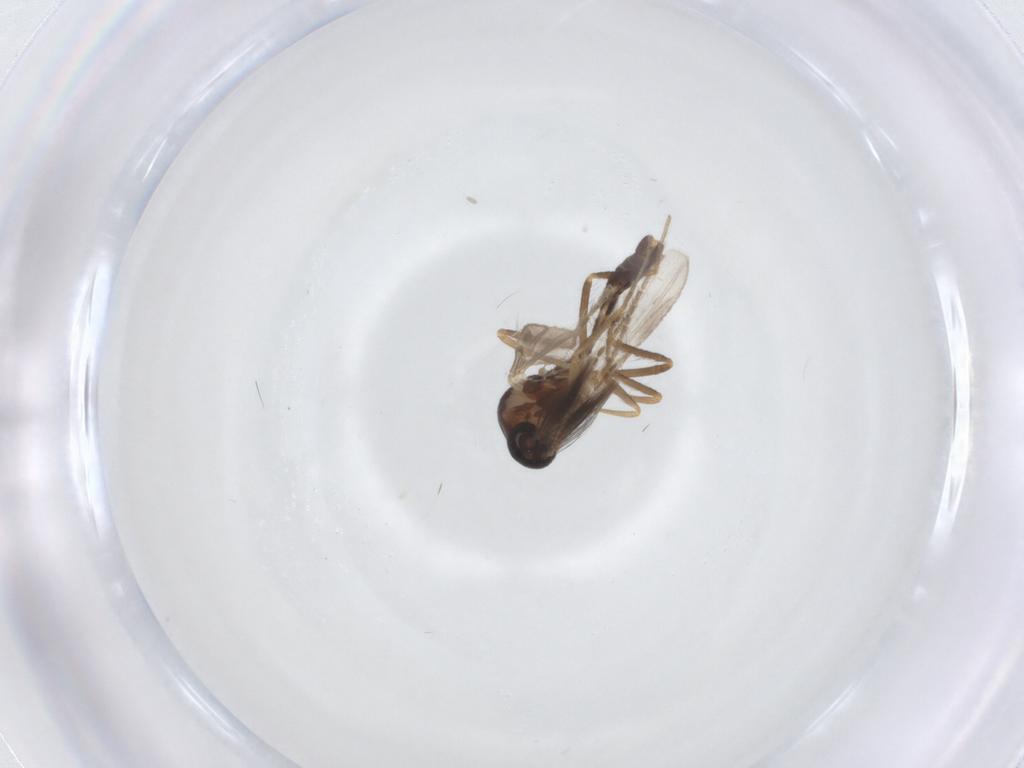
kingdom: Animalia
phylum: Arthropoda
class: Insecta
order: Diptera
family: Ceratopogonidae
